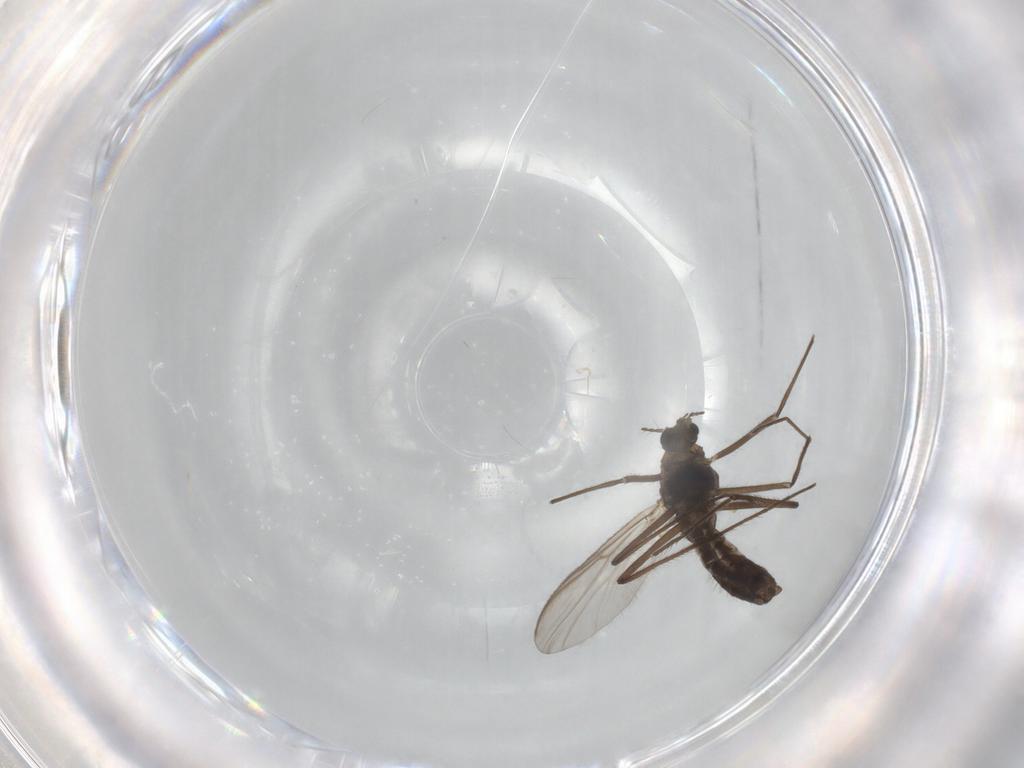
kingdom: Animalia
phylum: Arthropoda
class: Insecta
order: Diptera
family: Chironomidae
